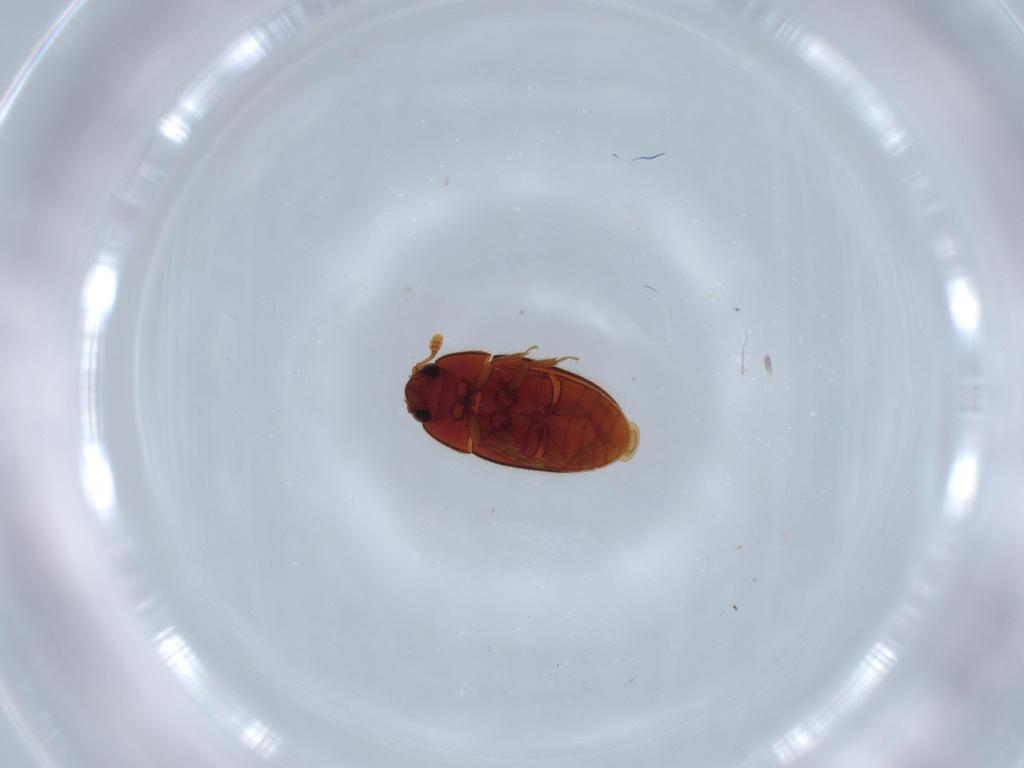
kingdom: Animalia
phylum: Arthropoda
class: Insecta
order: Coleoptera
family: Biphyllidae
